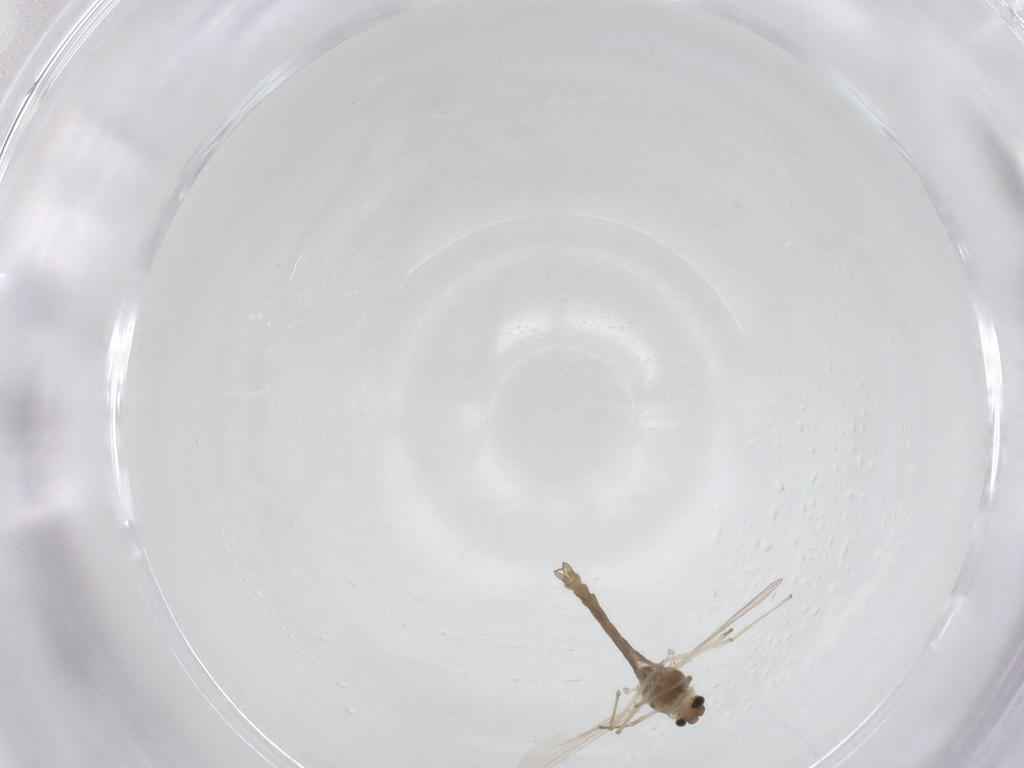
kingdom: Animalia
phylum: Arthropoda
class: Insecta
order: Diptera
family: Chironomidae
